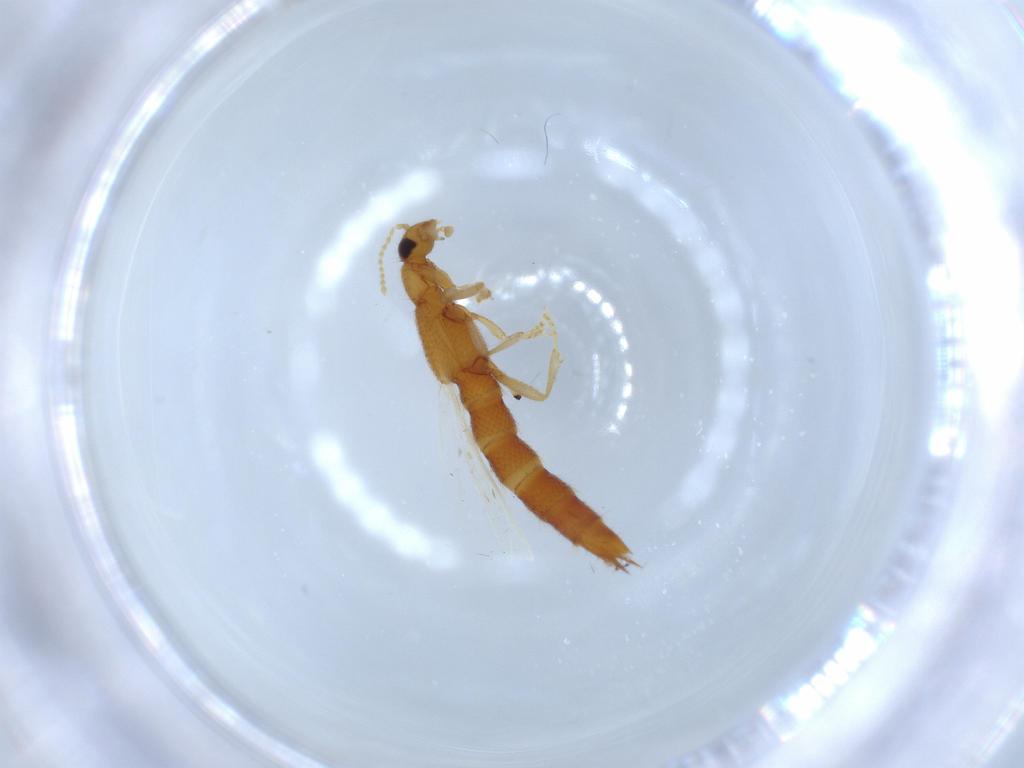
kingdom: Animalia
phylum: Arthropoda
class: Insecta
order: Coleoptera
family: Staphylinidae
